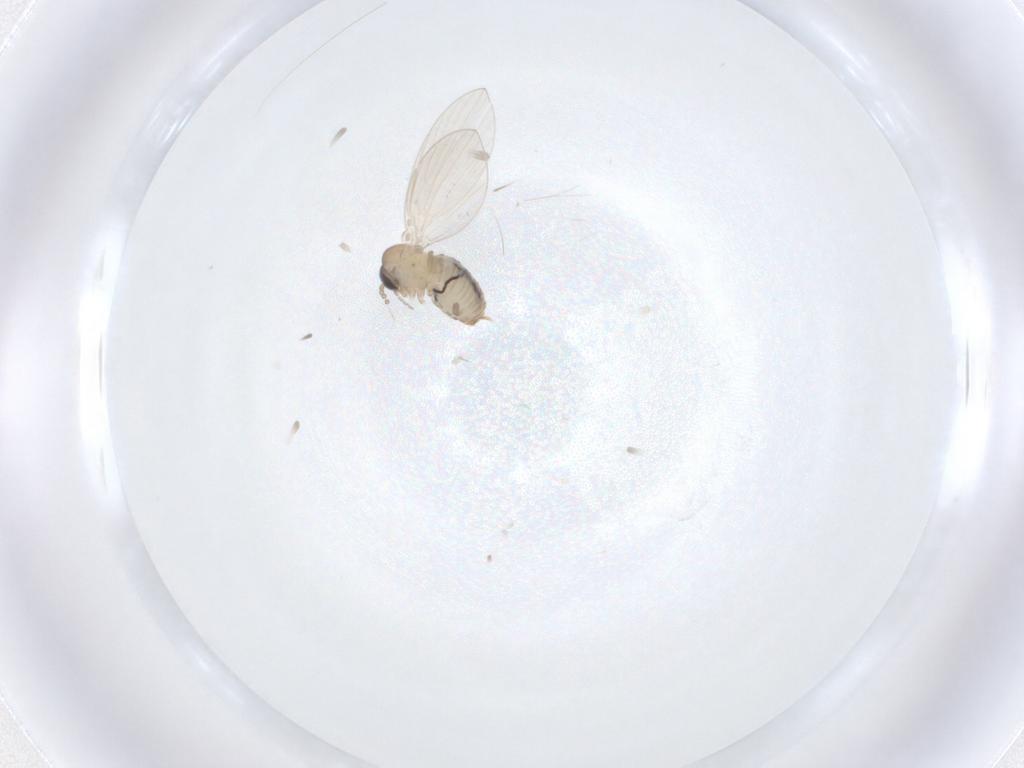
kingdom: Animalia
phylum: Arthropoda
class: Insecta
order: Diptera
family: Psychodidae
